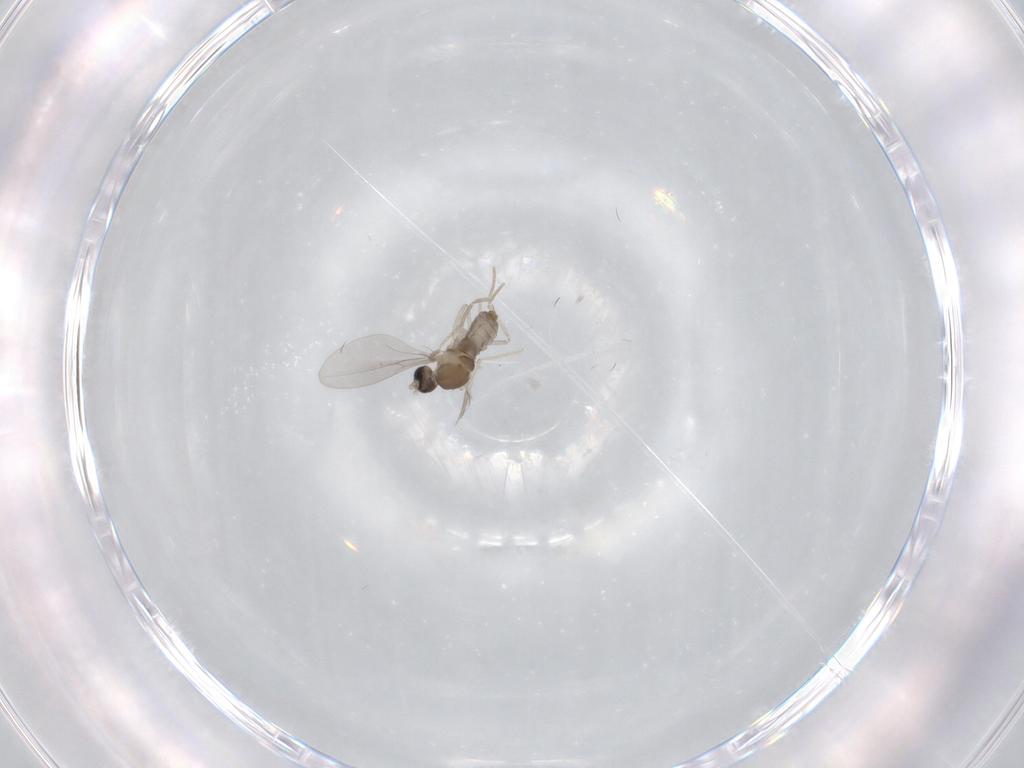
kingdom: Animalia
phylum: Arthropoda
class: Insecta
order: Diptera
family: Cecidomyiidae
